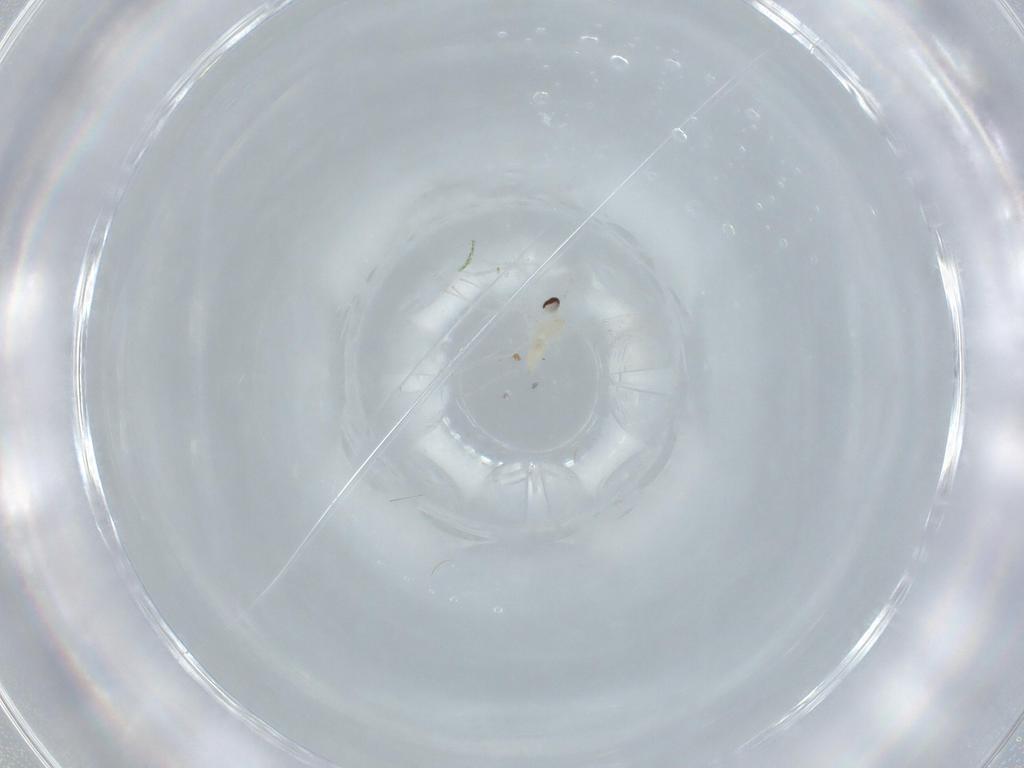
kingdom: Animalia
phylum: Arthropoda
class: Insecta
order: Diptera
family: Cecidomyiidae
